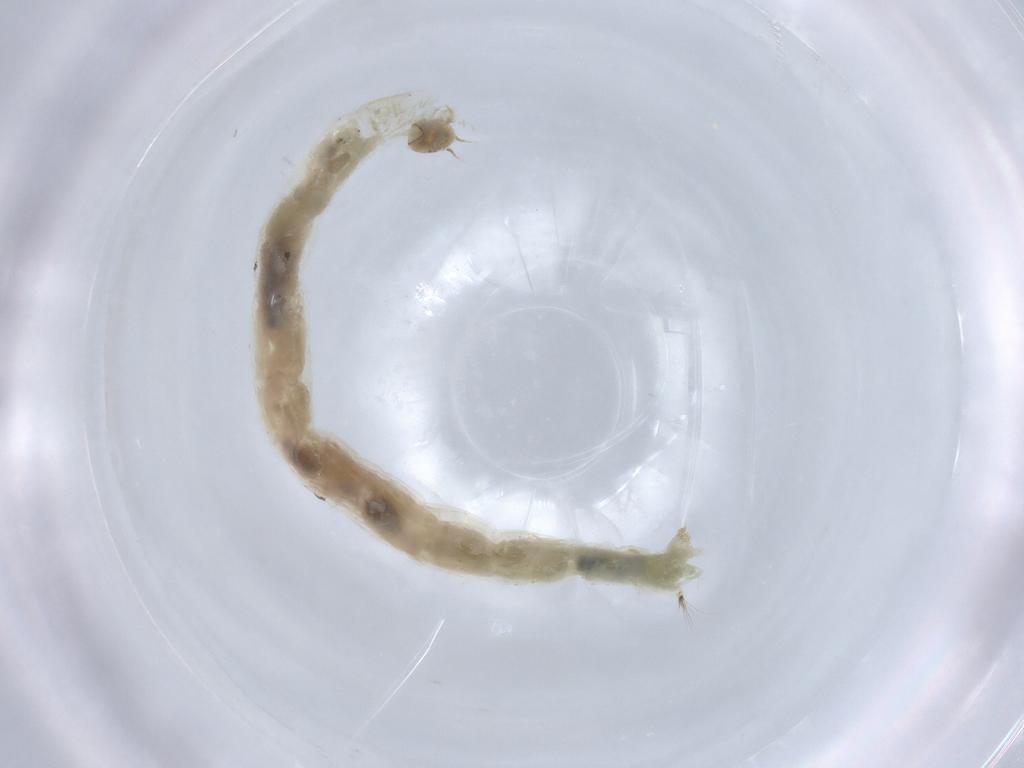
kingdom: Animalia
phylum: Arthropoda
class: Insecta
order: Diptera
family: Chironomidae
